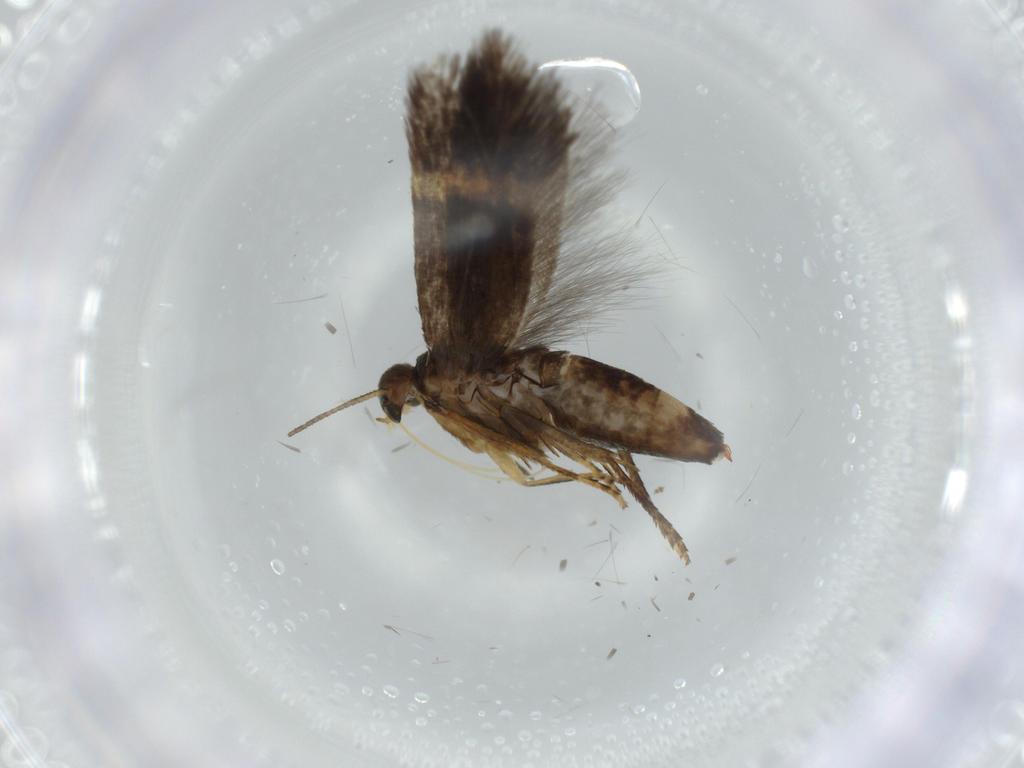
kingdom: Animalia
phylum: Arthropoda
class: Insecta
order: Lepidoptera
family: Heliozelidae
